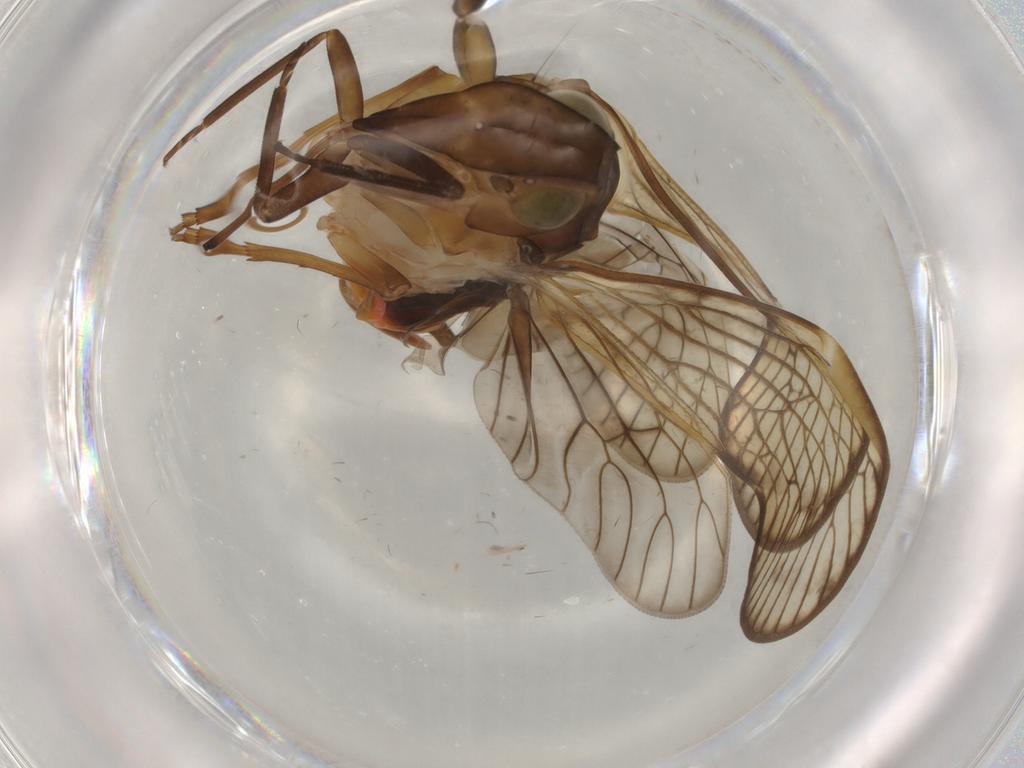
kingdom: Animalia
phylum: Arthropoda
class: Insecta
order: Hemiptera
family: Cixiidae
